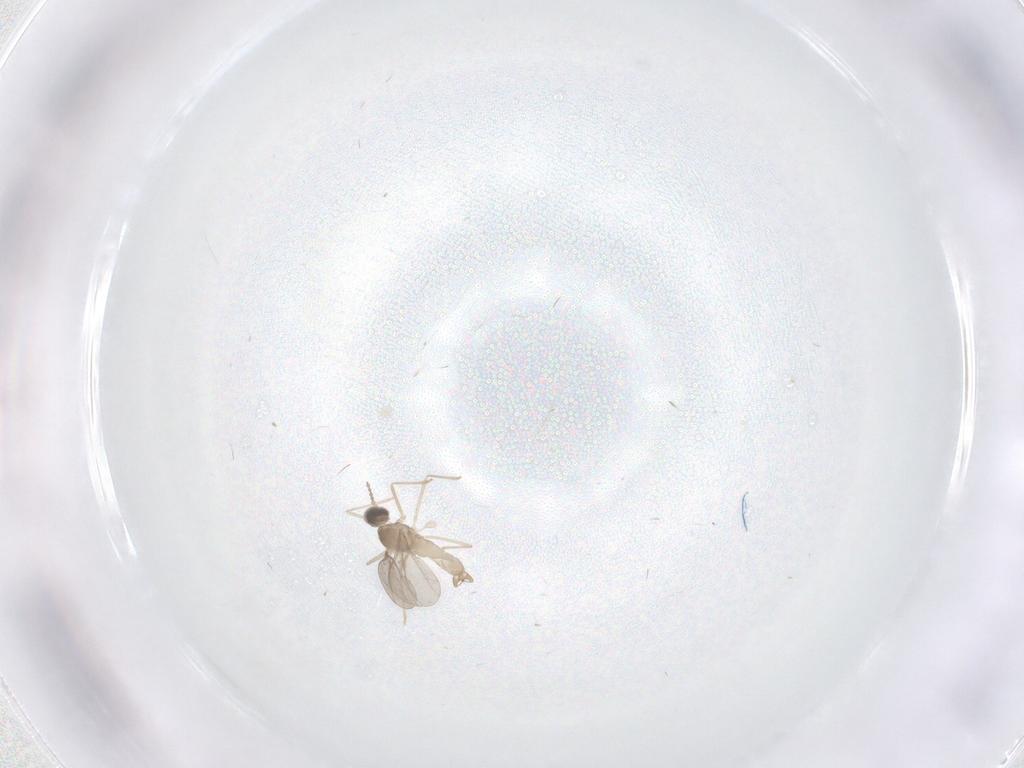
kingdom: Animalia
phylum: Arthropoda
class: Insecta
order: Diptera
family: Cecidomyiidae
